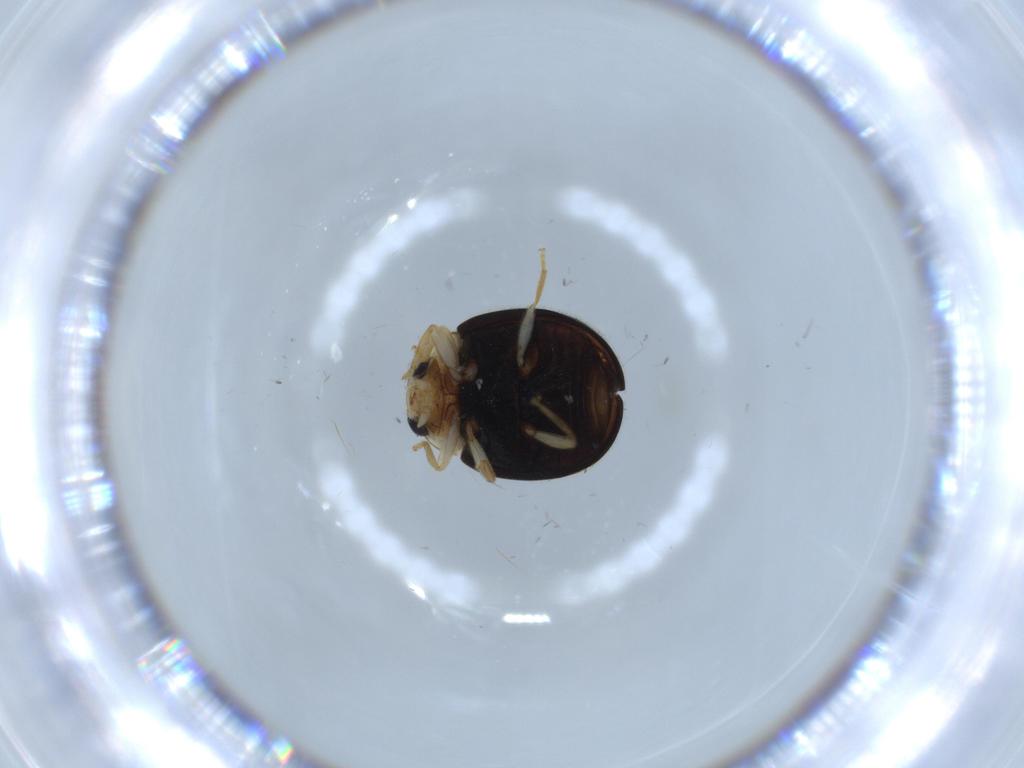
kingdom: Animalia
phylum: Arthropoda
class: Insecta
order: Coleoptera
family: Coccinellidae
